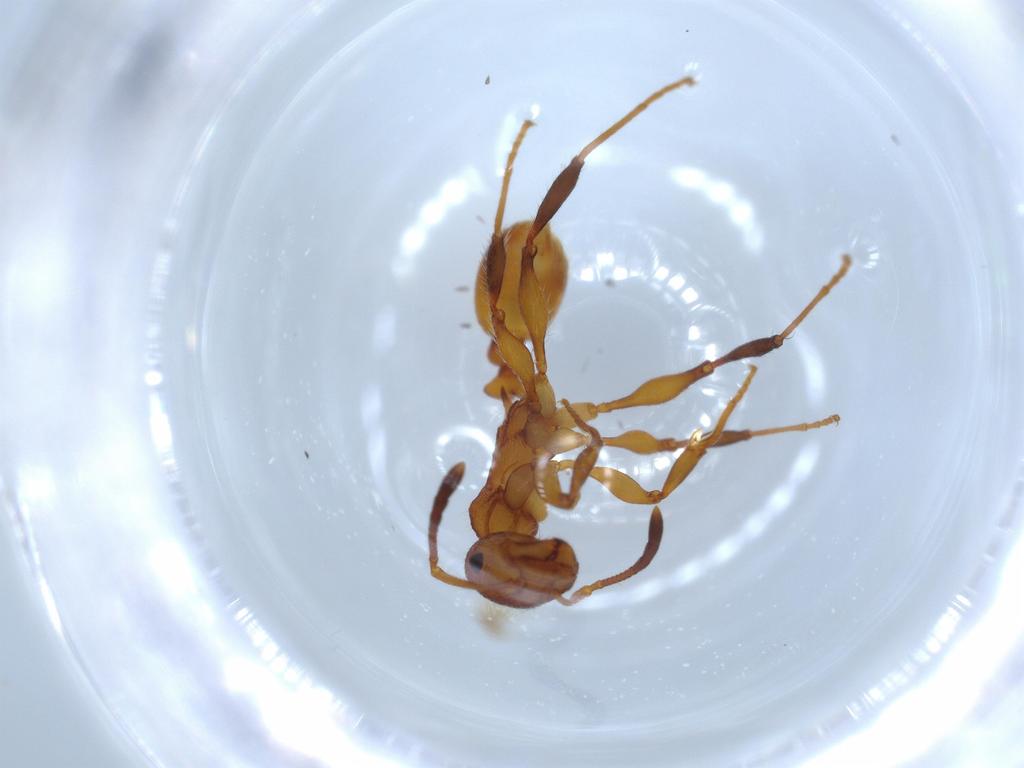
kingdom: Animalia
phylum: Arthropoda
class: Insecta
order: Hymenoptera
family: Formicidae
